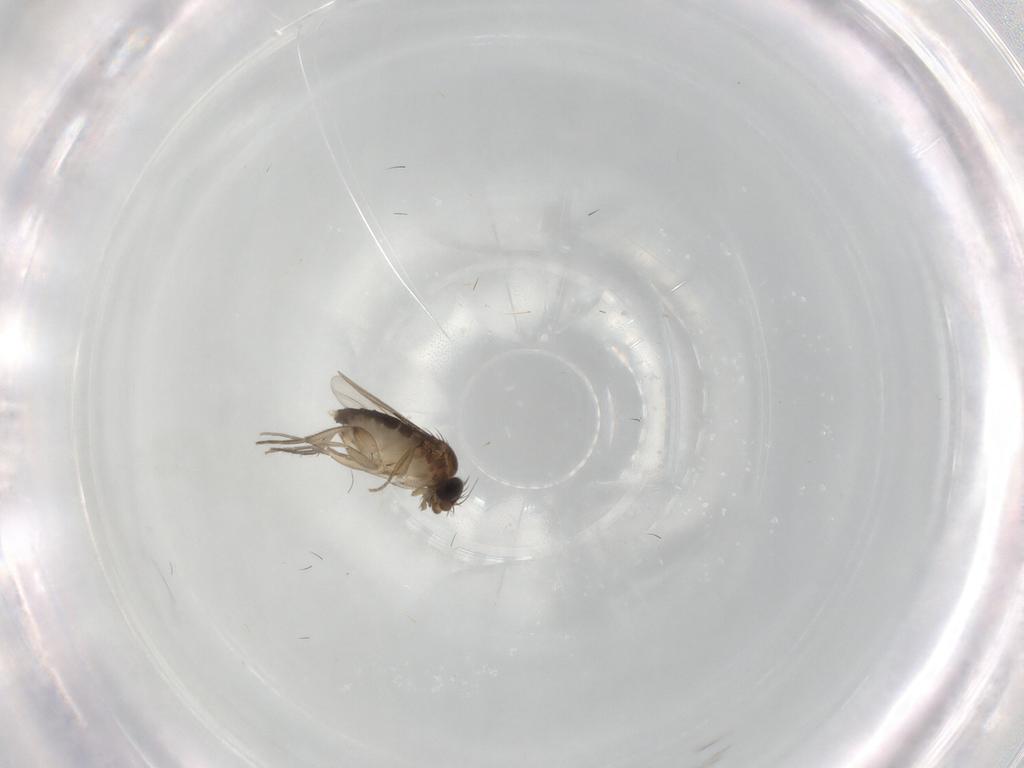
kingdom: Animalia
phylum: Arthropoda
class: Insecta
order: Diptera
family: Phoridae
